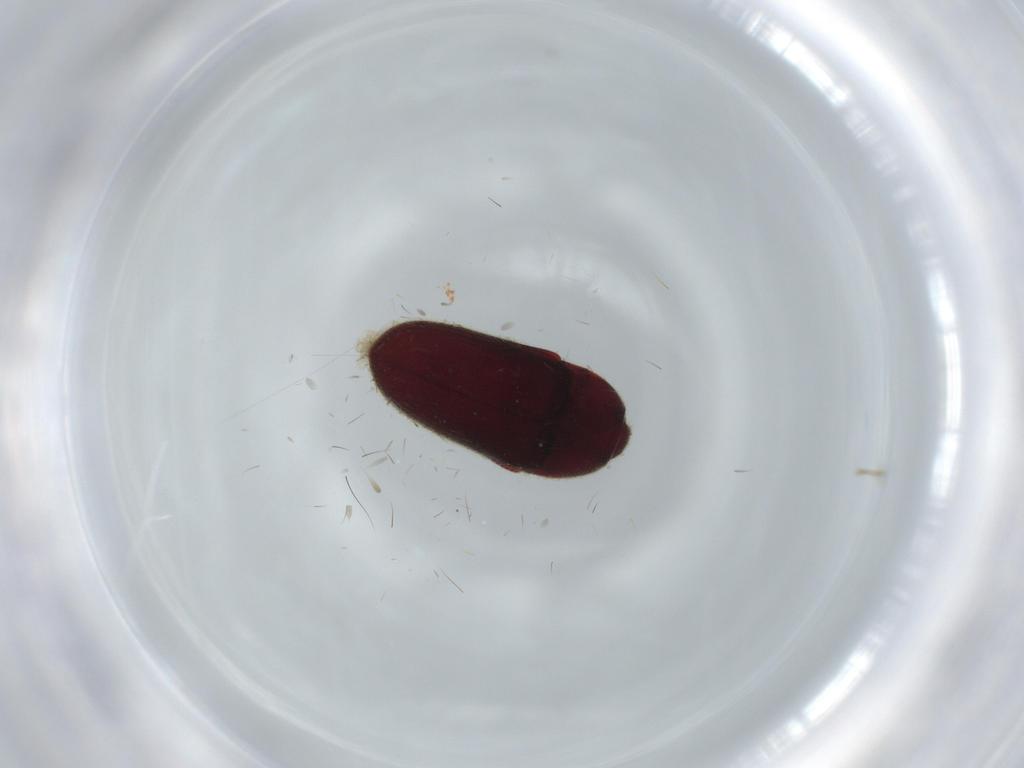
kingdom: Animalia
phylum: Arthropoda
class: Insecta
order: Coleoptera
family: Throscidae
